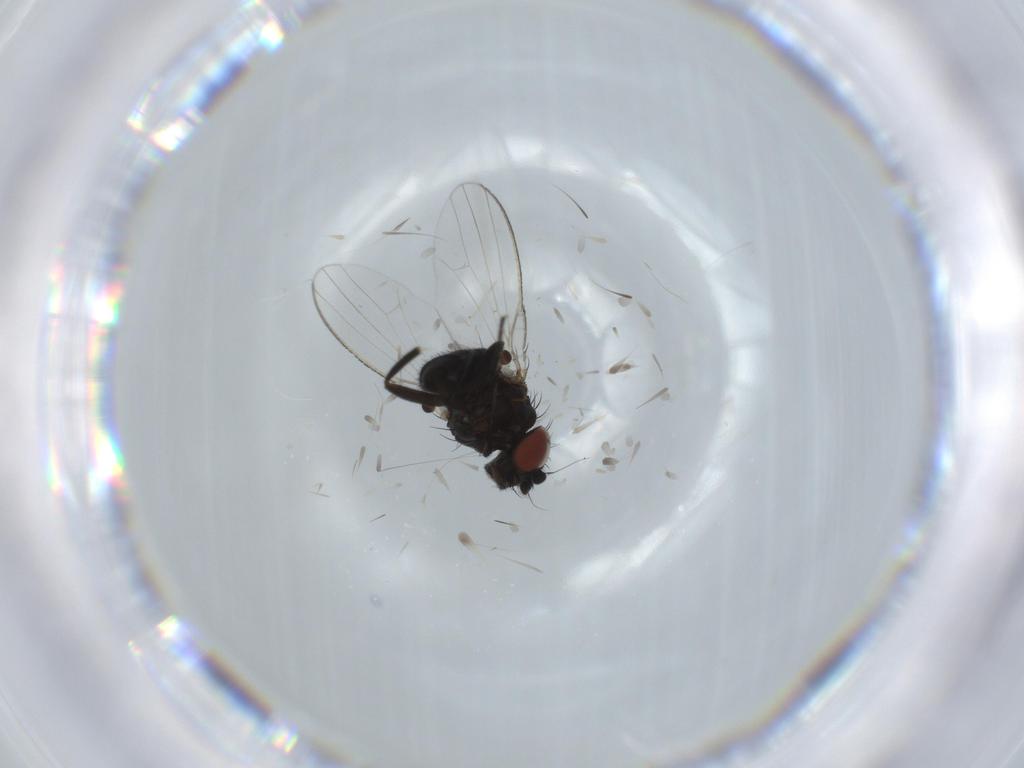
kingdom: Animalia
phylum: Arthropoda
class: Insecta
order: Diptera
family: Milichiidae
